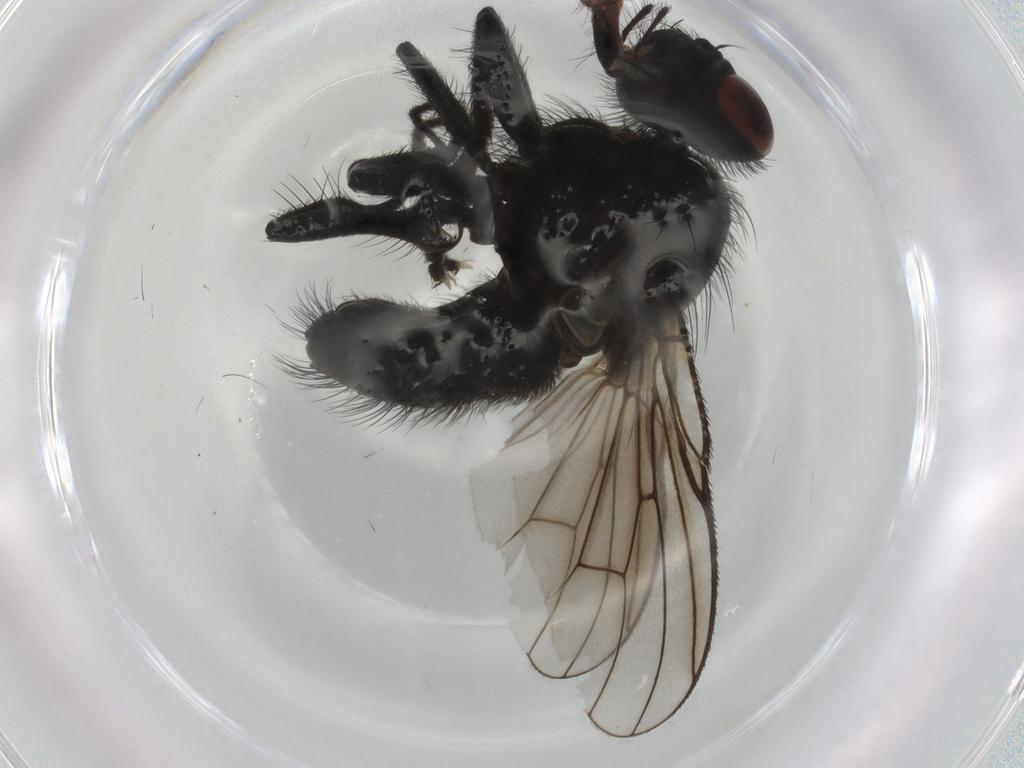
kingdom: Animalia
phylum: Arthropoda
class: Insecta
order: Diptera
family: Muscidae
